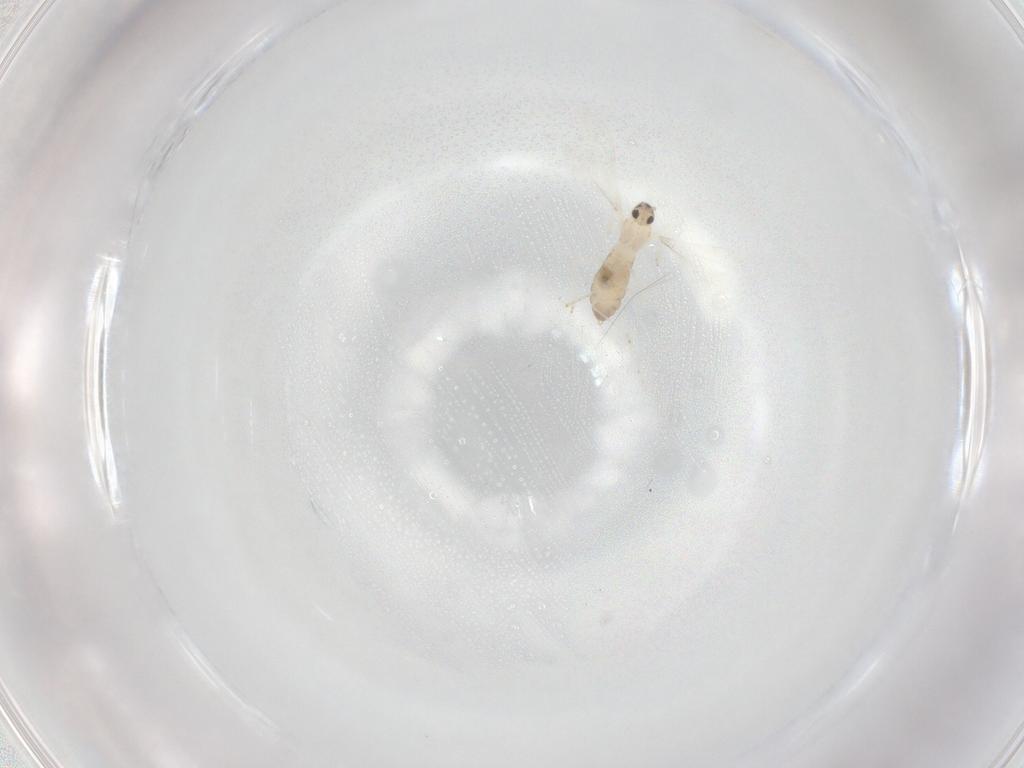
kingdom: Animalia
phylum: Arthropoda
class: Insecta
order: Diptera
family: Cecidomyiidae
